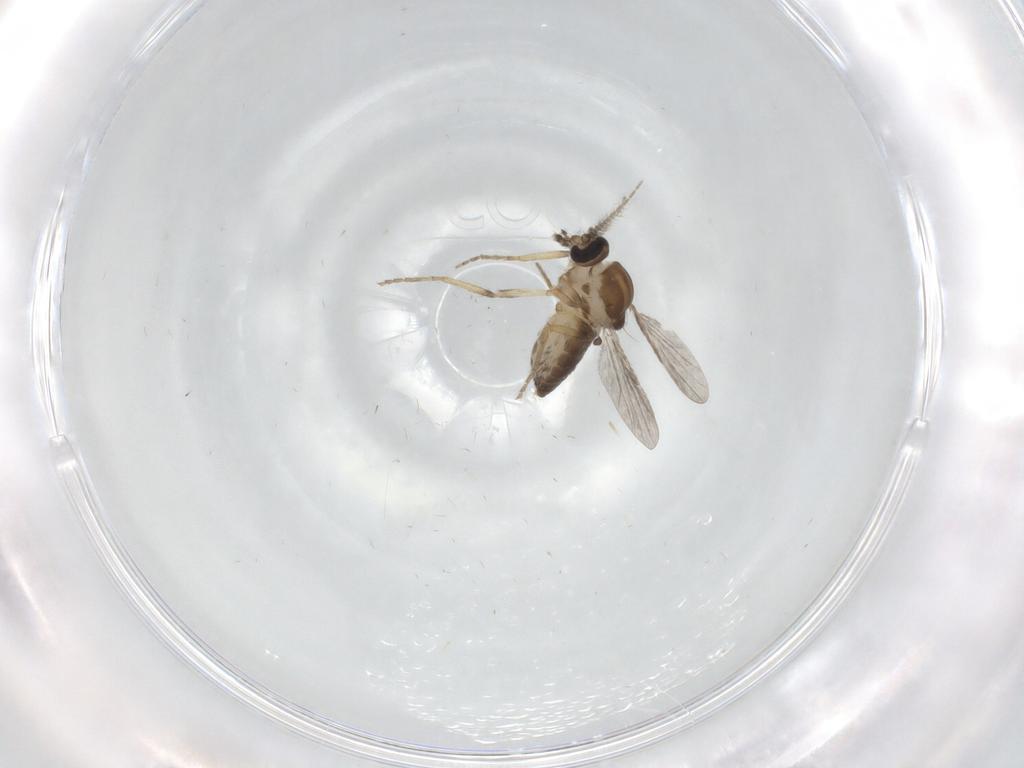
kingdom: Animalia
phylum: Arthropoda
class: Insecta
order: Diptera
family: Ceratopogonidae
